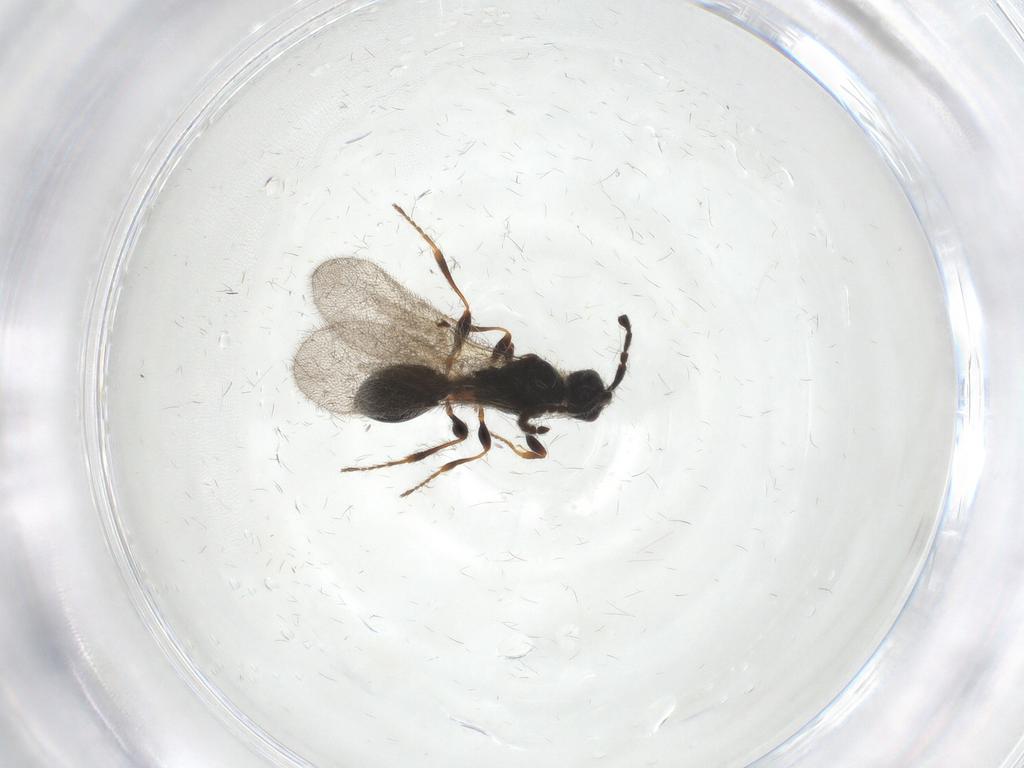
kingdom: Animalia
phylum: Arthropoda
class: Insecta
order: Hymenoptera
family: Diapriidae
